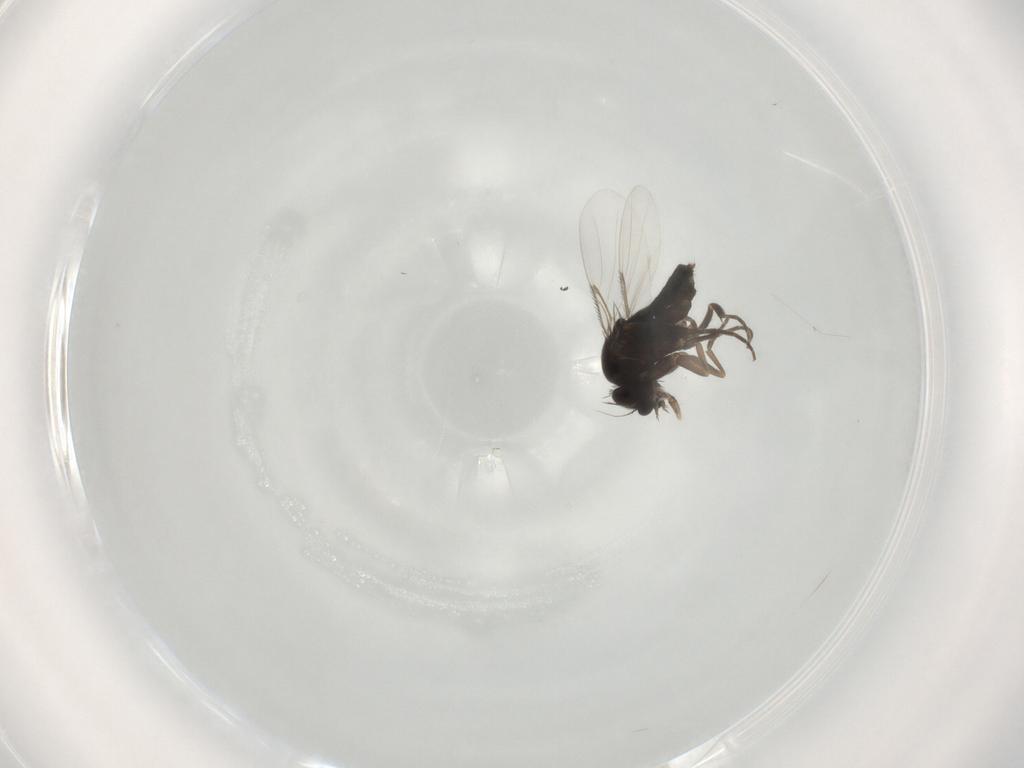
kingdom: Animalia
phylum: Arthropoda
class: Insecta
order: Diptera
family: Phoridae
